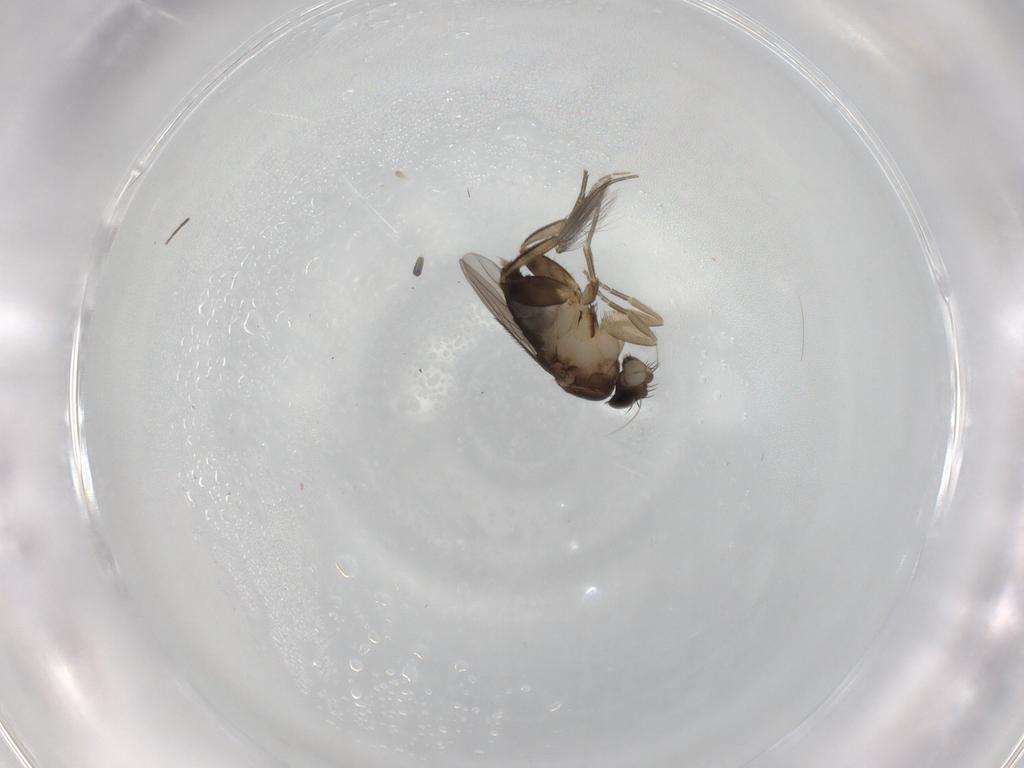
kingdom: Animalia
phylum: Arthropoda
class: Insecta
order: Diptera
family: Phoridae
